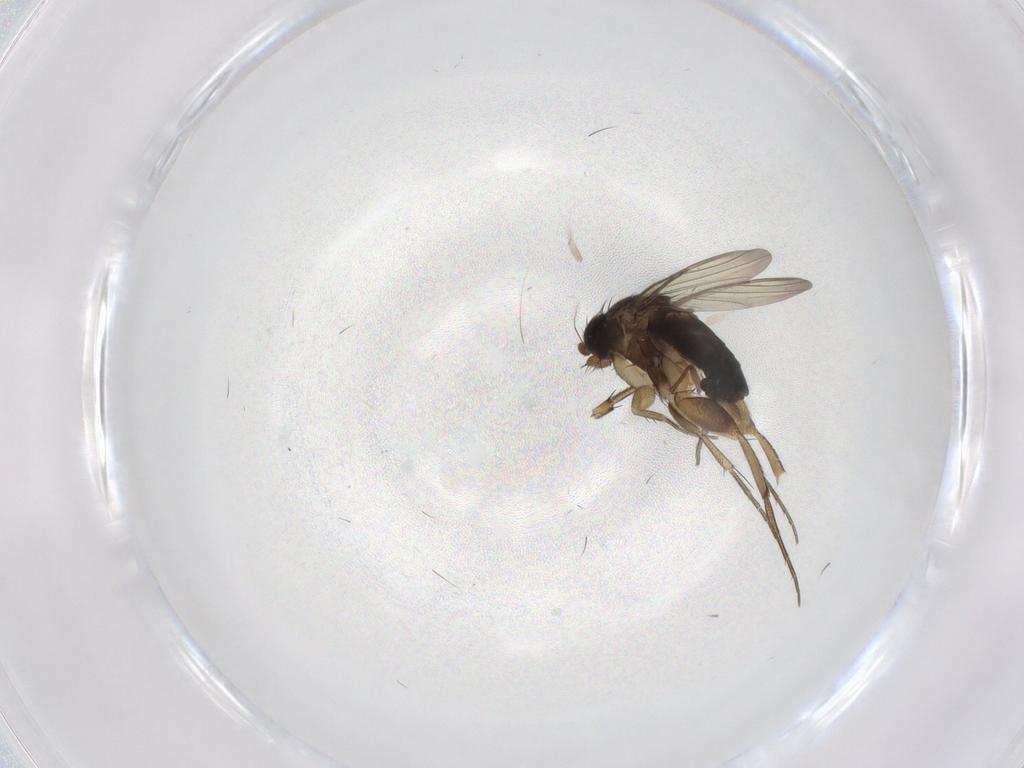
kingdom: Animalia
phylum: Arthropoda
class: Insecta
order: Diptera
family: Sciaridae
